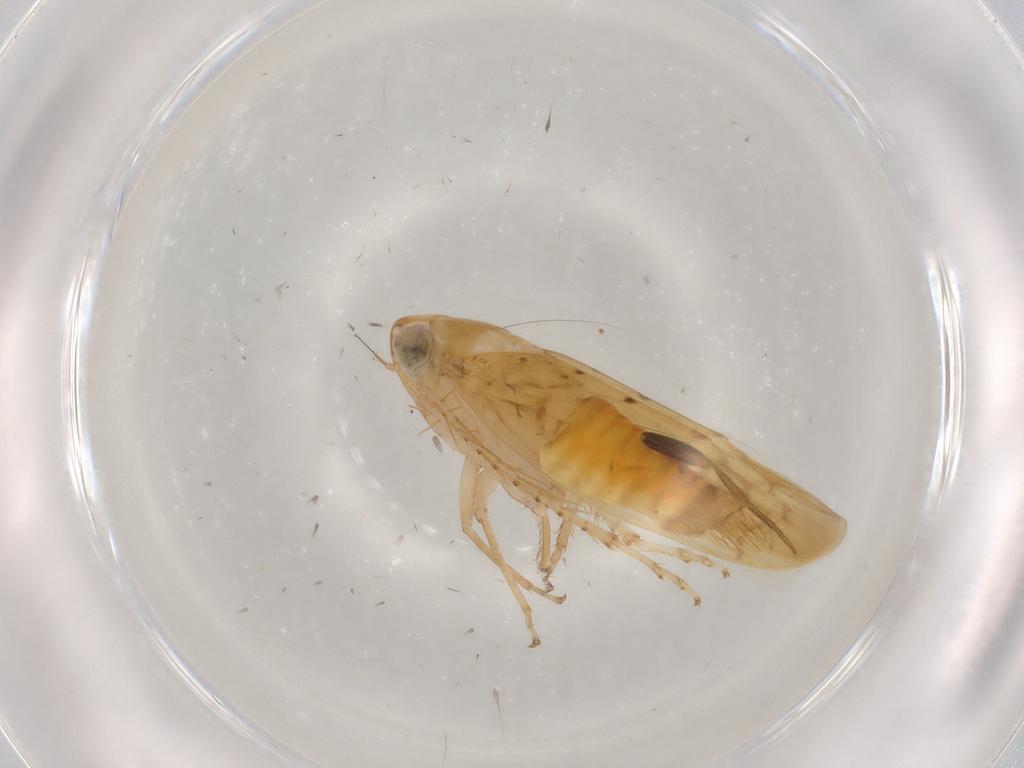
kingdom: Animalia
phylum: Arthropoda
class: Insecta
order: Hemiptera
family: Cicadellidae
